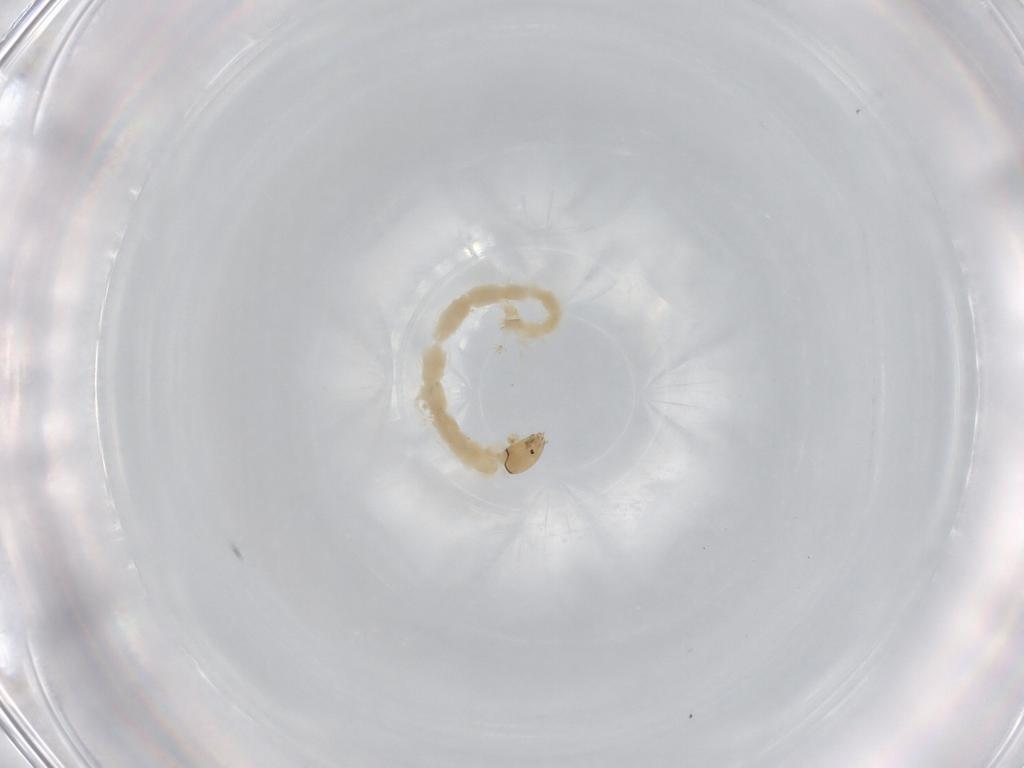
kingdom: Animalia
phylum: Arthropoda
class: Insecta
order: Diptera
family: Chironomidae
